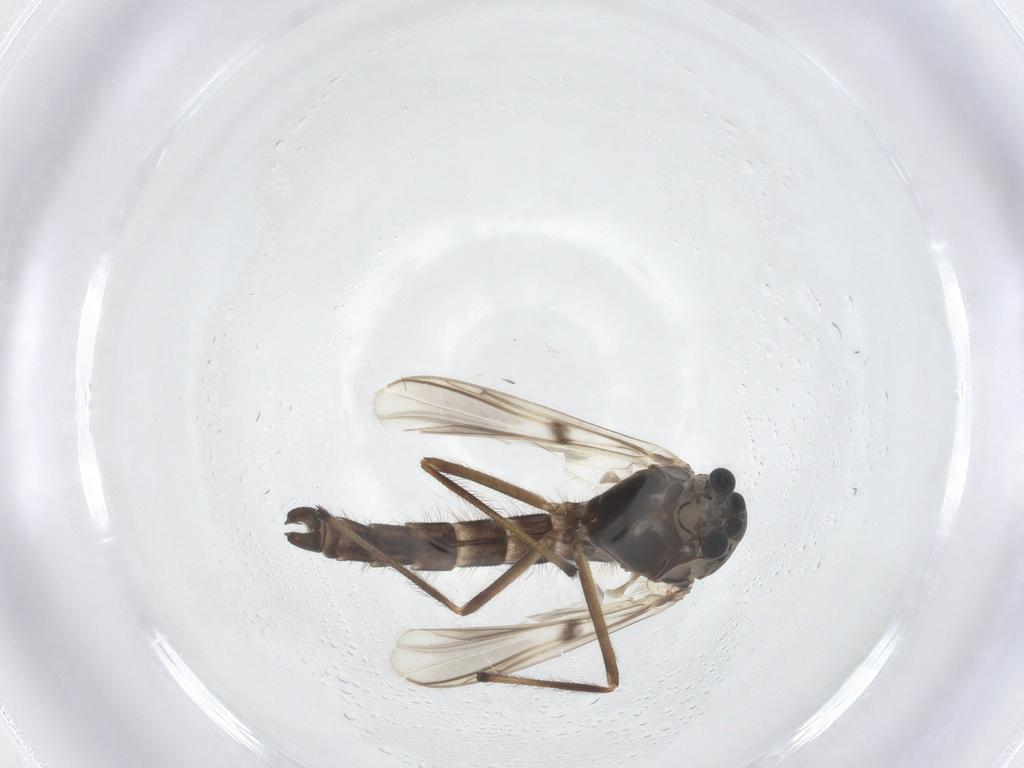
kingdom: Animalia
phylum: Arthropoda
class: Insecta
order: Diptera
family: Chironomidae
